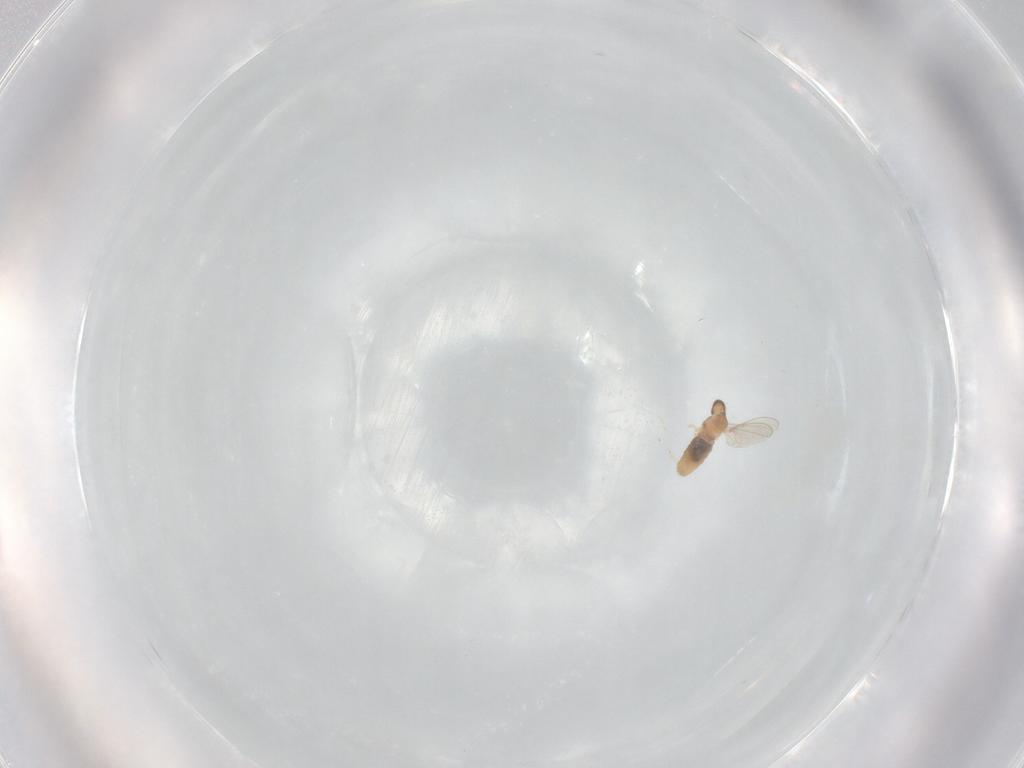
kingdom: Animalia
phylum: Arthropoda
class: Insecta
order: Diptera
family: Cecidomyiidae
